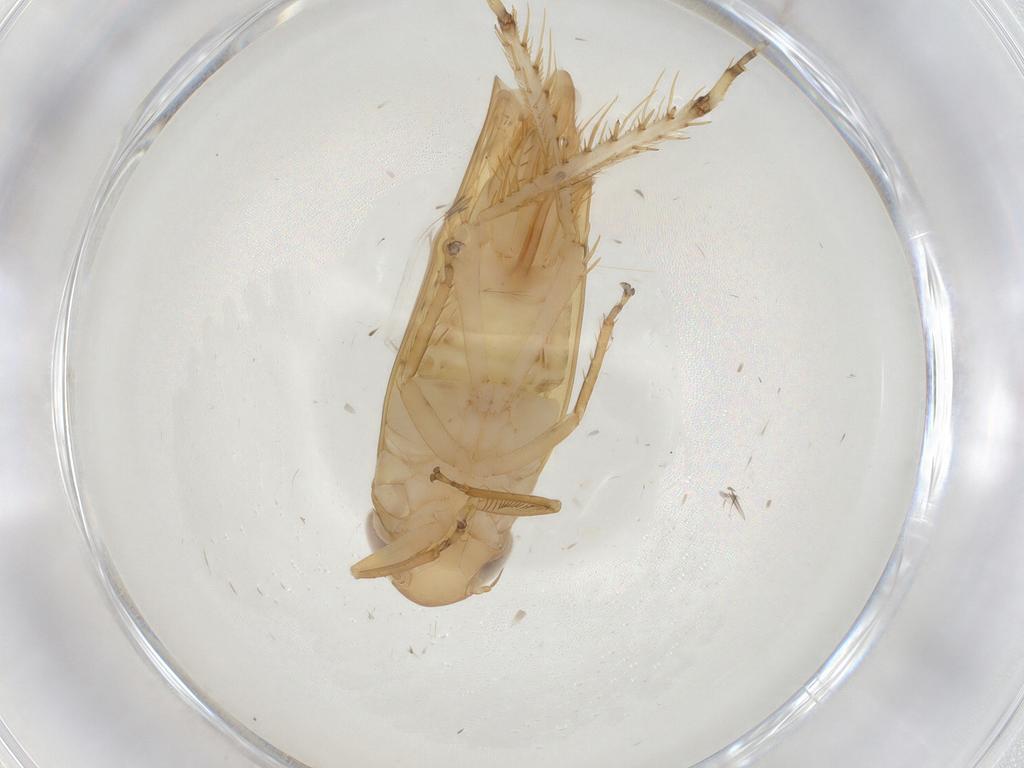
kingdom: Animalia
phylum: Arthropoda
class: Insecta
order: Hemiptera
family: Cicadellidae
